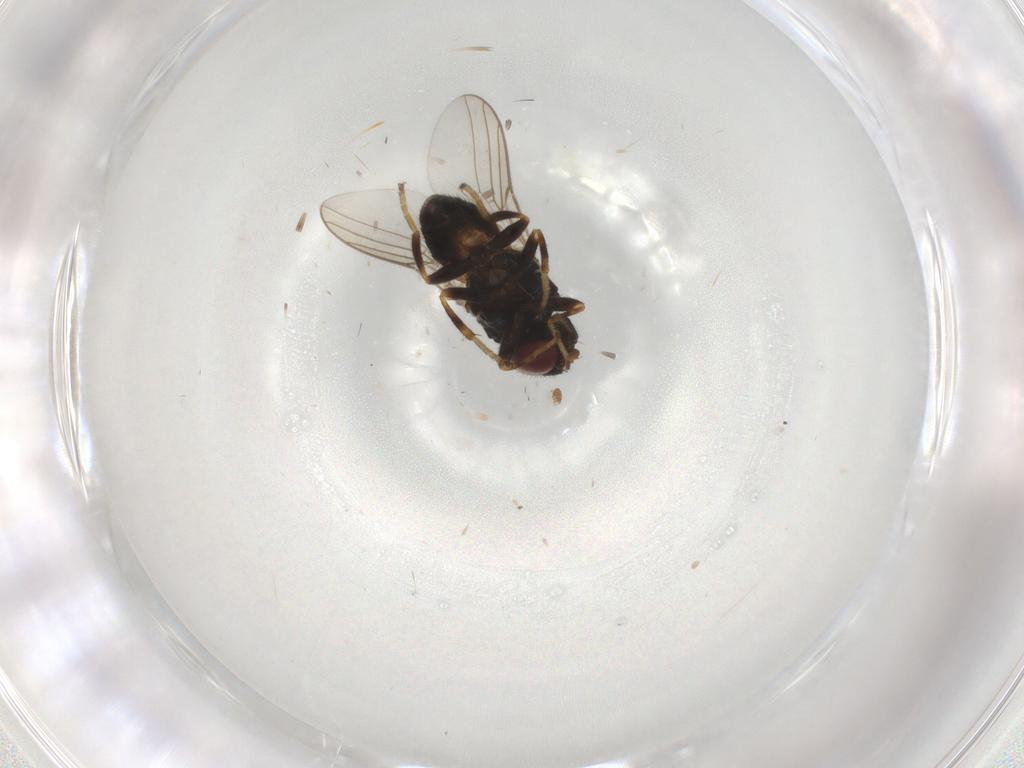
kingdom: Animalia
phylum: Arthropoda
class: Insecta
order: Diptera
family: Chloropidae
